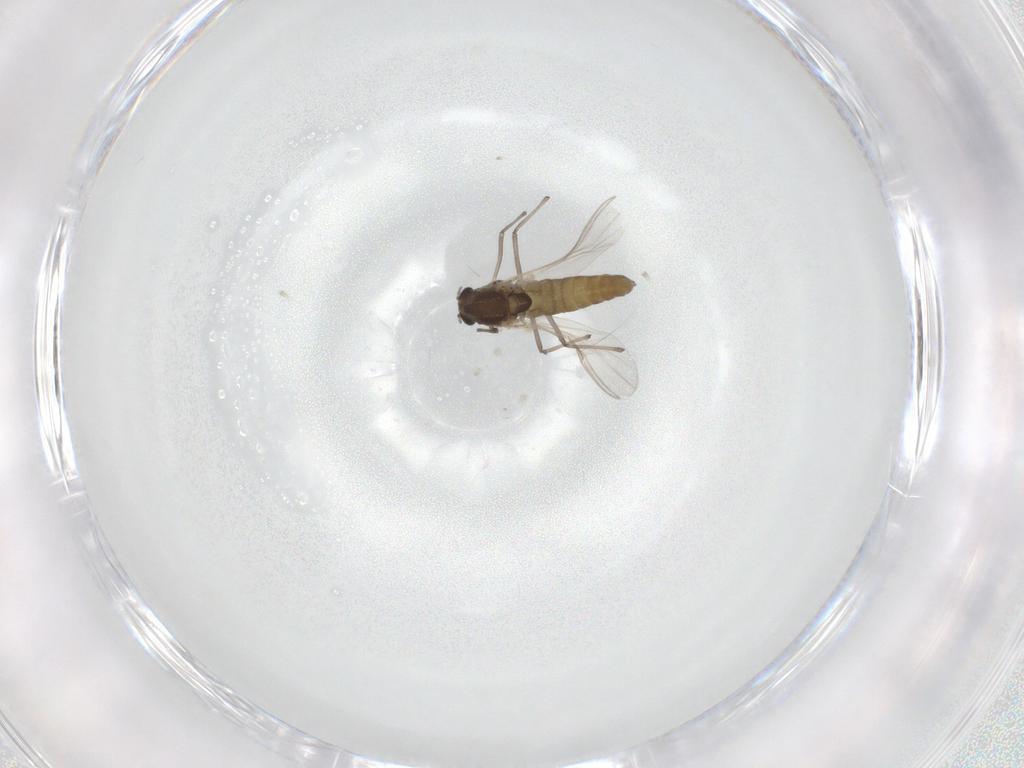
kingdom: Animalia
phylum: Arthropoda
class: Insecta
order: Diptera
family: Chironomidae
